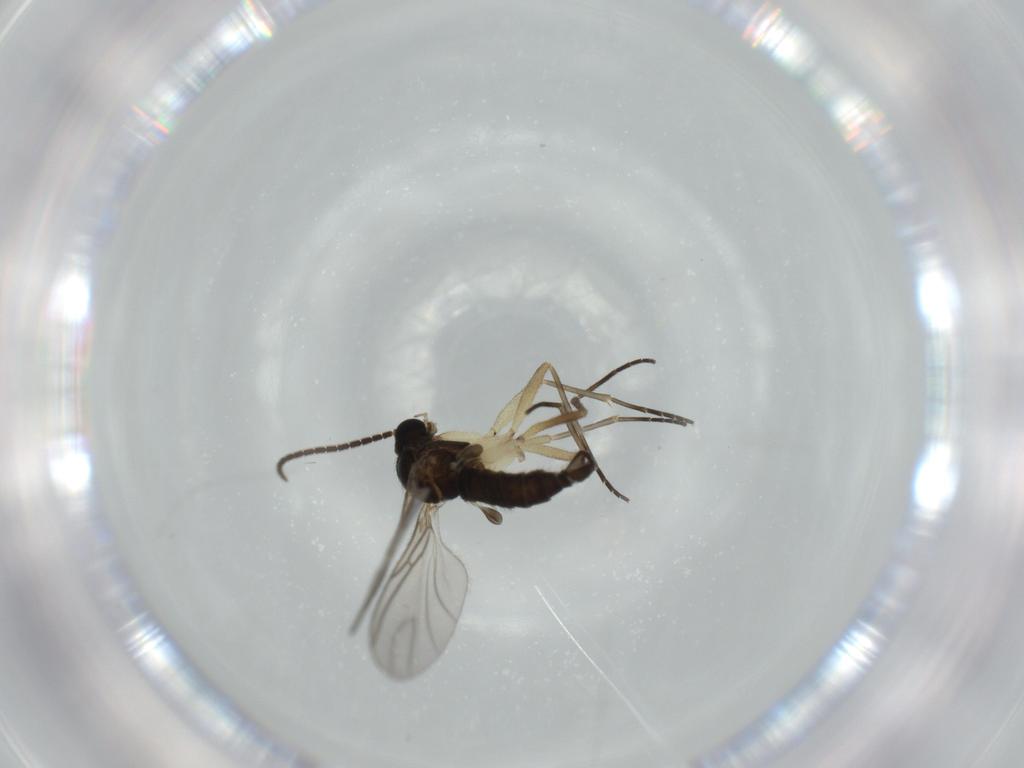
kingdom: Animalia
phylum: Arthropoda
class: Insecta
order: Diptera
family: Sciaridae
